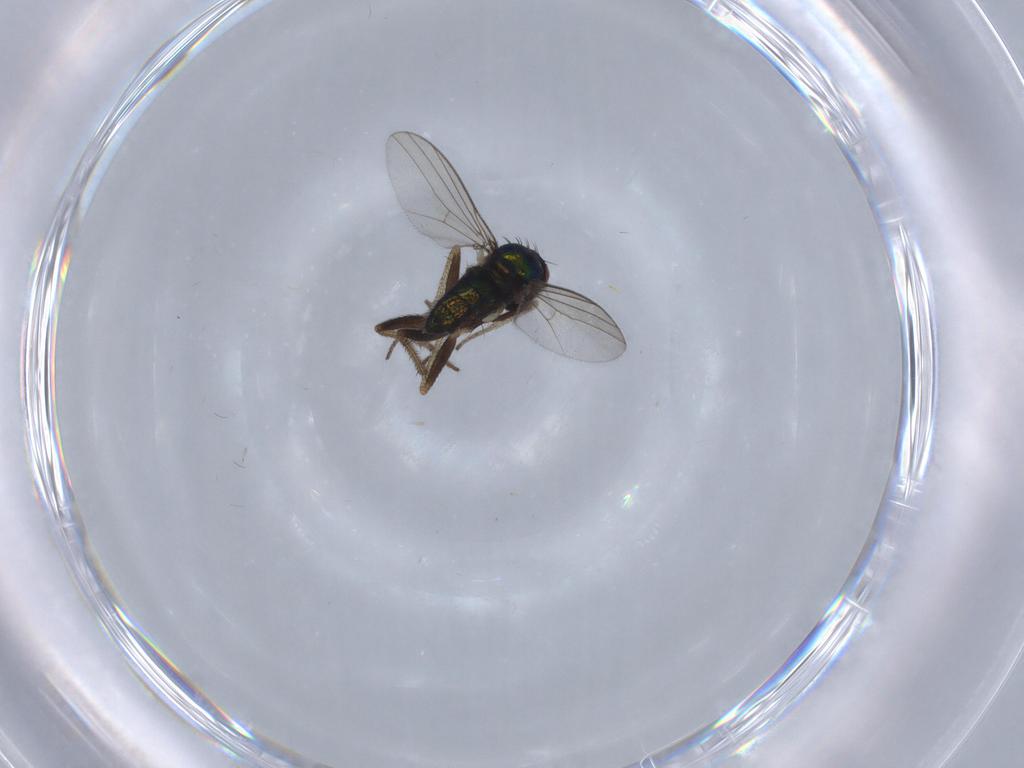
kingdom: Animalia
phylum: Arthropoda
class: Insecta
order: Diptera
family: Limoniidae
